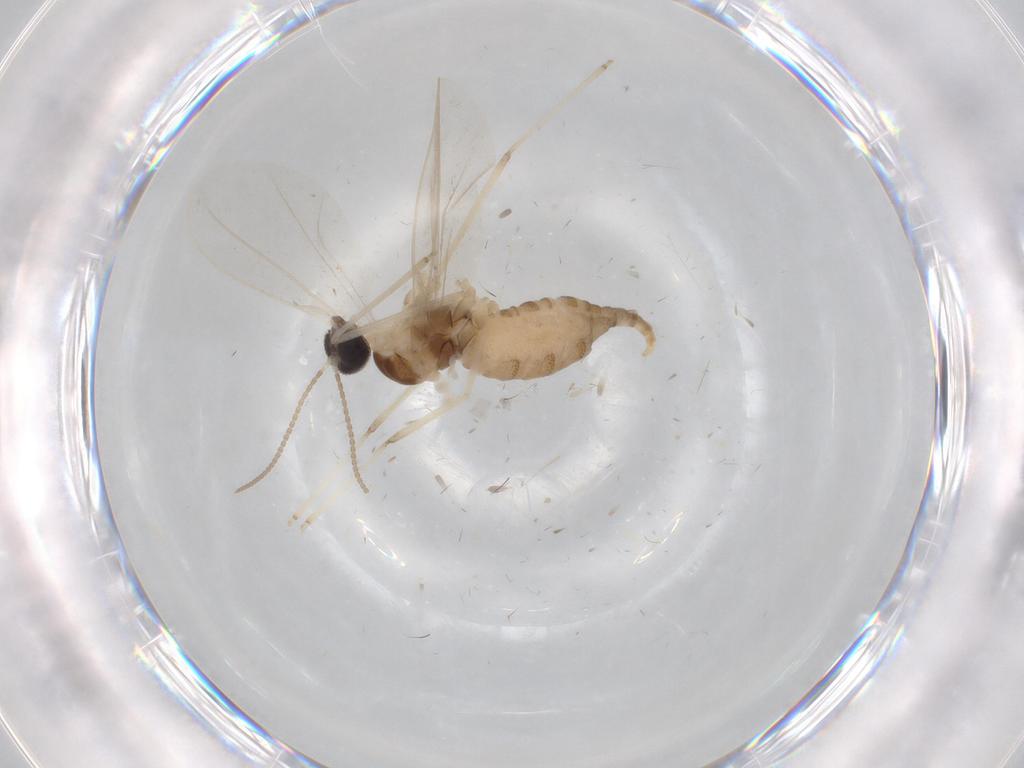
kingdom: Animalia
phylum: Arthropoda
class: Insecta
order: Diptera
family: Cecidomyiidae
